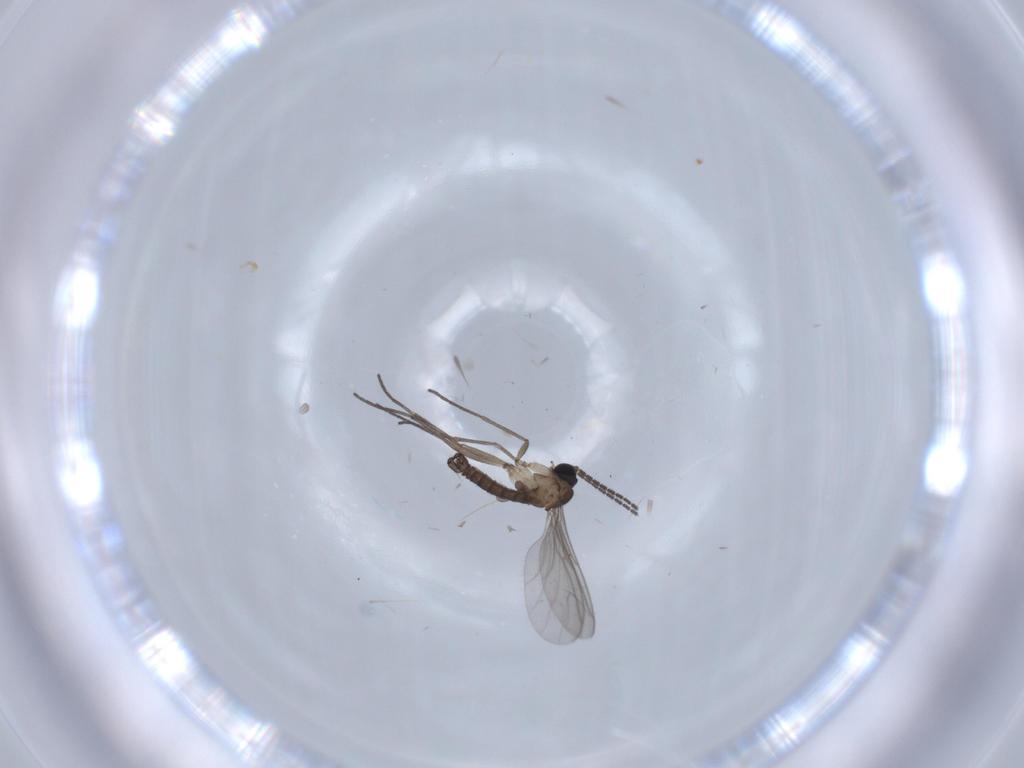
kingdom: Animalia
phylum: Arthropoda
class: Insecta
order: Diptera
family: Sciaridae
